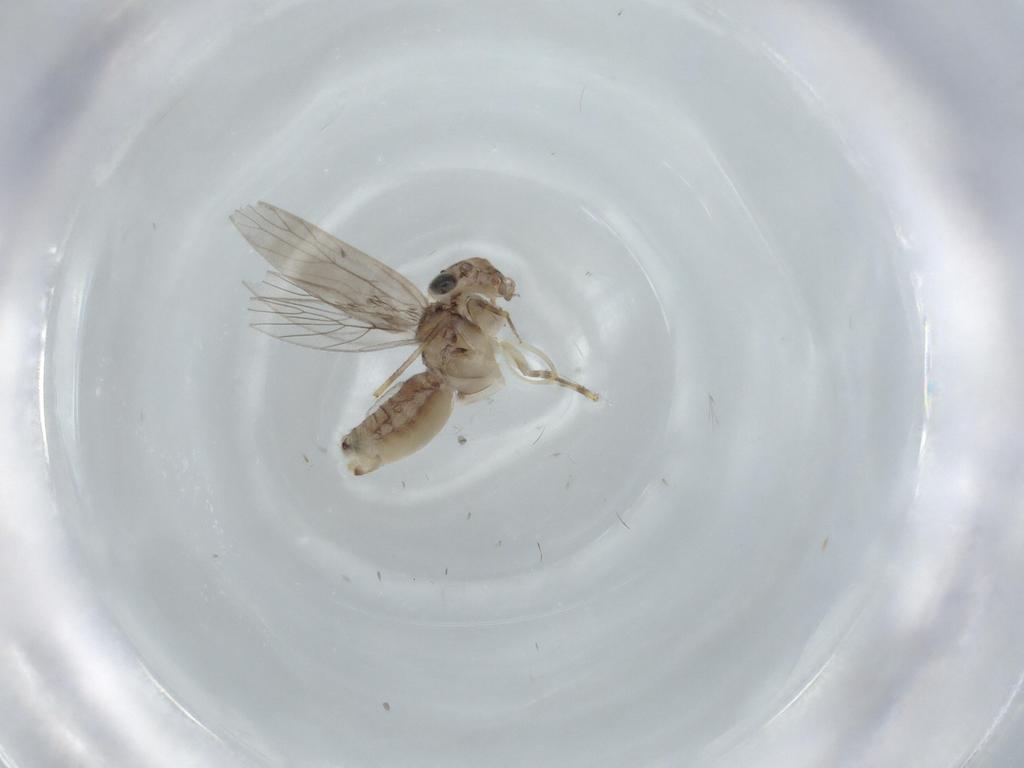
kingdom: Animalia
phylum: Arthropoda
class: Insecta
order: Psocodea
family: Lepidopsocidae
